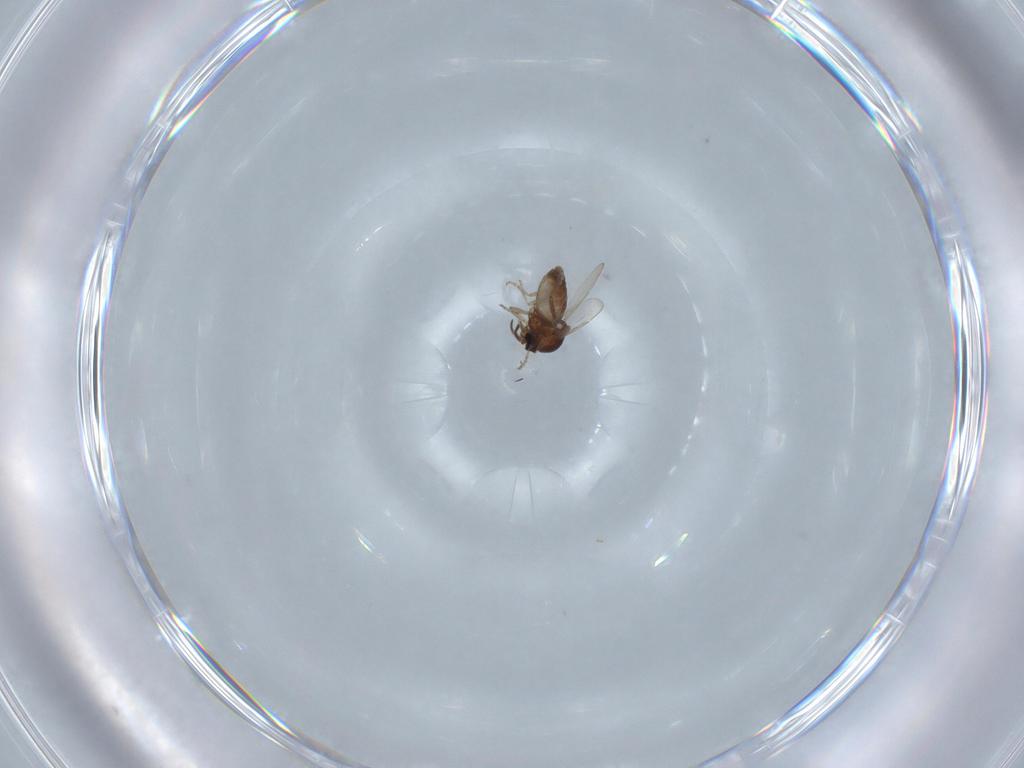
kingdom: Animalia
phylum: Arthropoda
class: Insecta
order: Diptera
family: Ceratopogonidae
